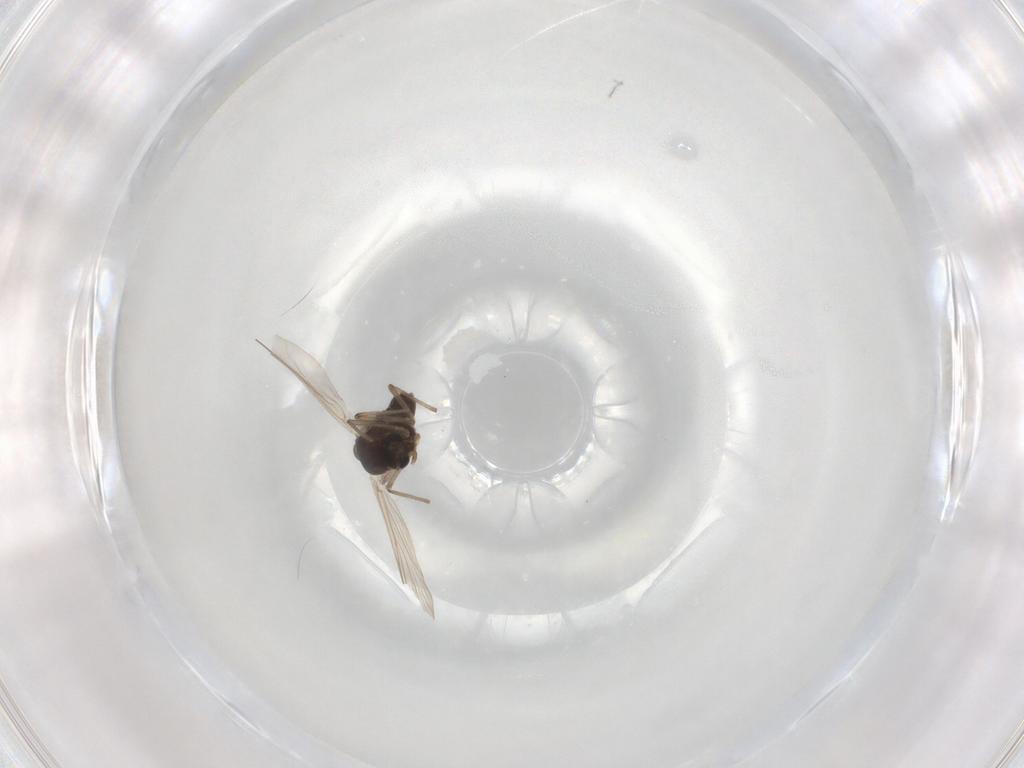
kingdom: Animalia
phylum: Arthropoda
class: Insecta
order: Diptera
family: Chironomidae
